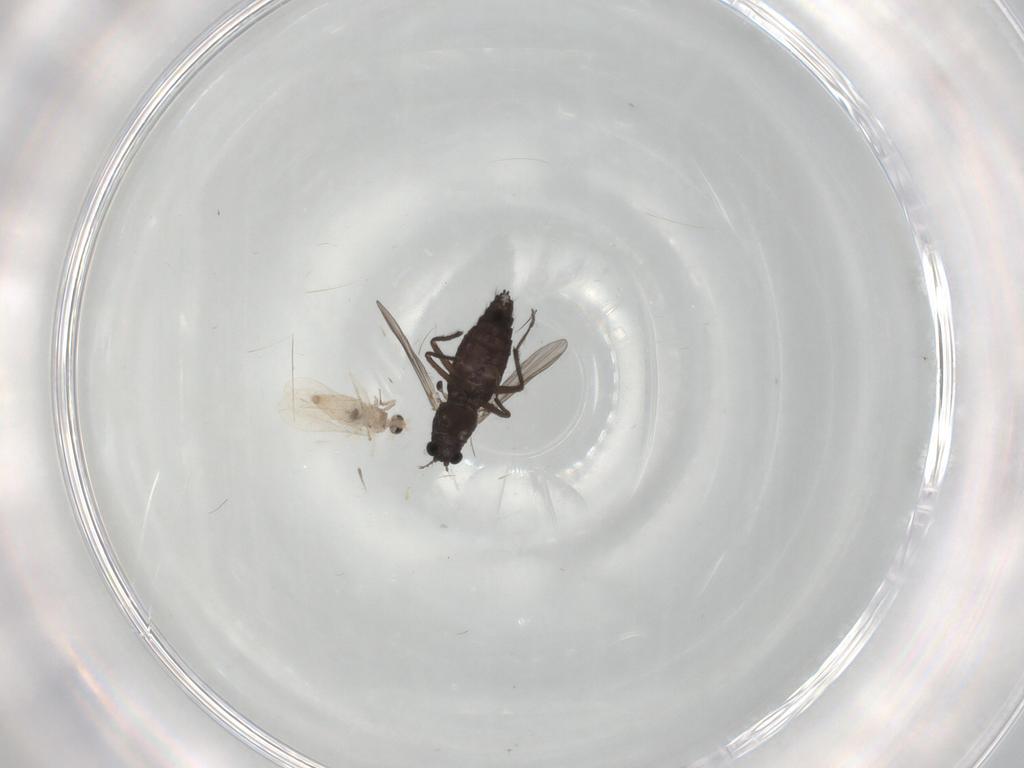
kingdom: Animalia
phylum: Arthropoda
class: Insecta
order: Diptera
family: Chironomidae
